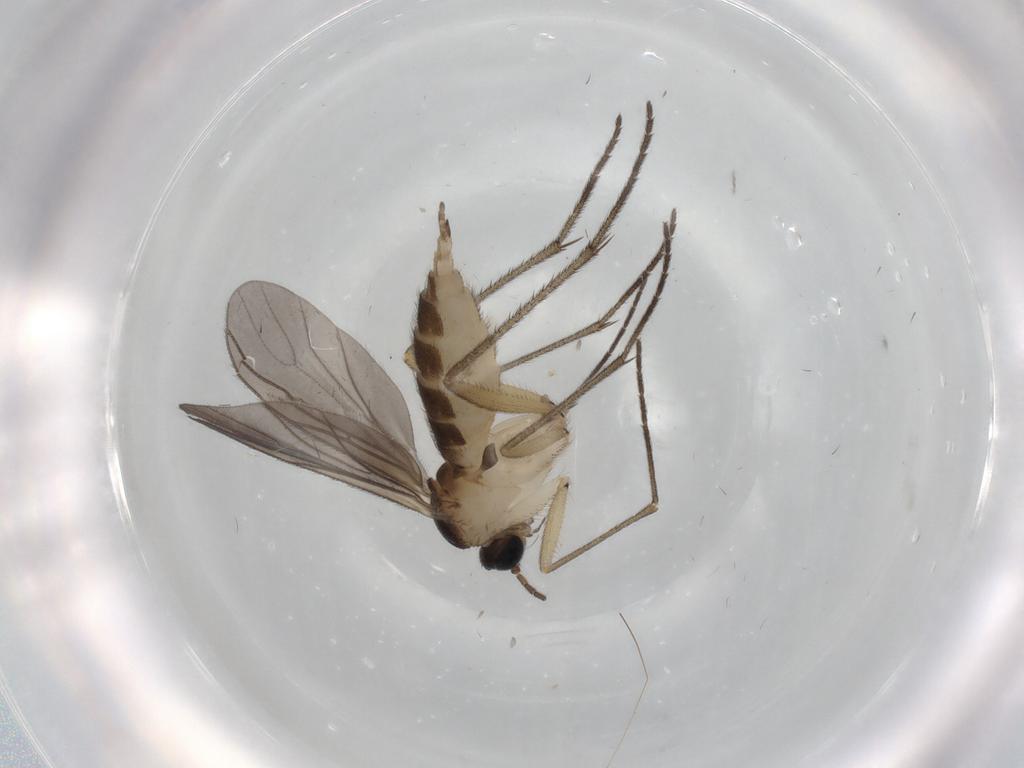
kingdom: Animalia
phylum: Arthropoda
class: Insecta
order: Diptera
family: Sciaridae
